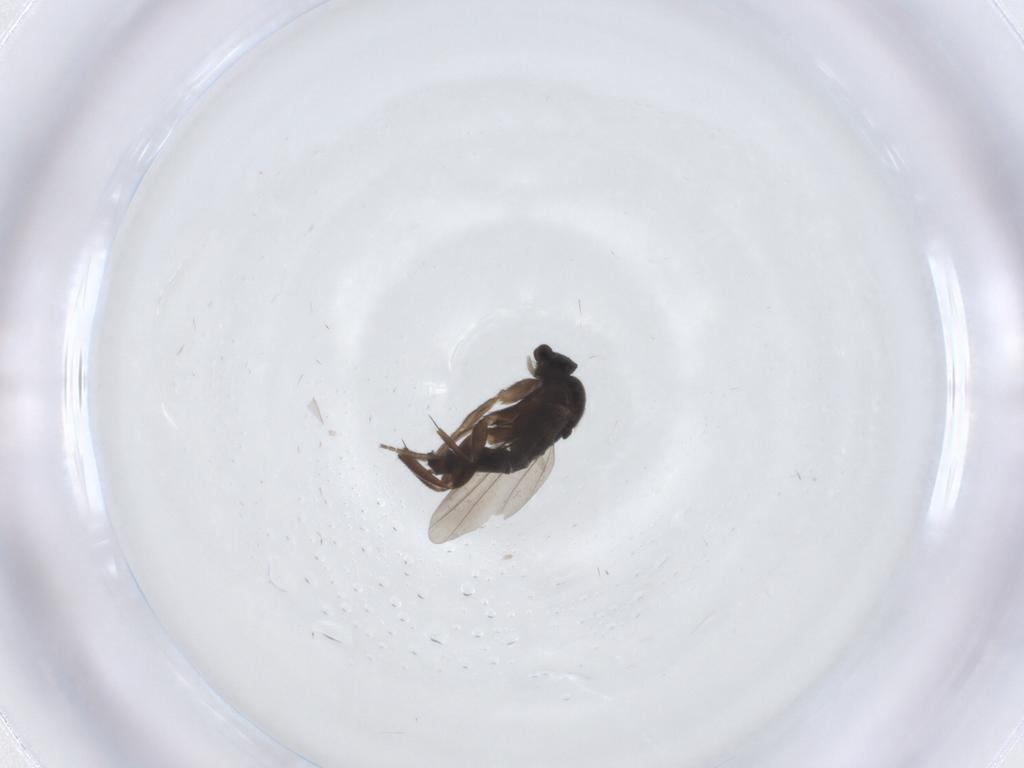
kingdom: Animalia
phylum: Arthropoda
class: Insecta
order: Diptera
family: Phoridae
